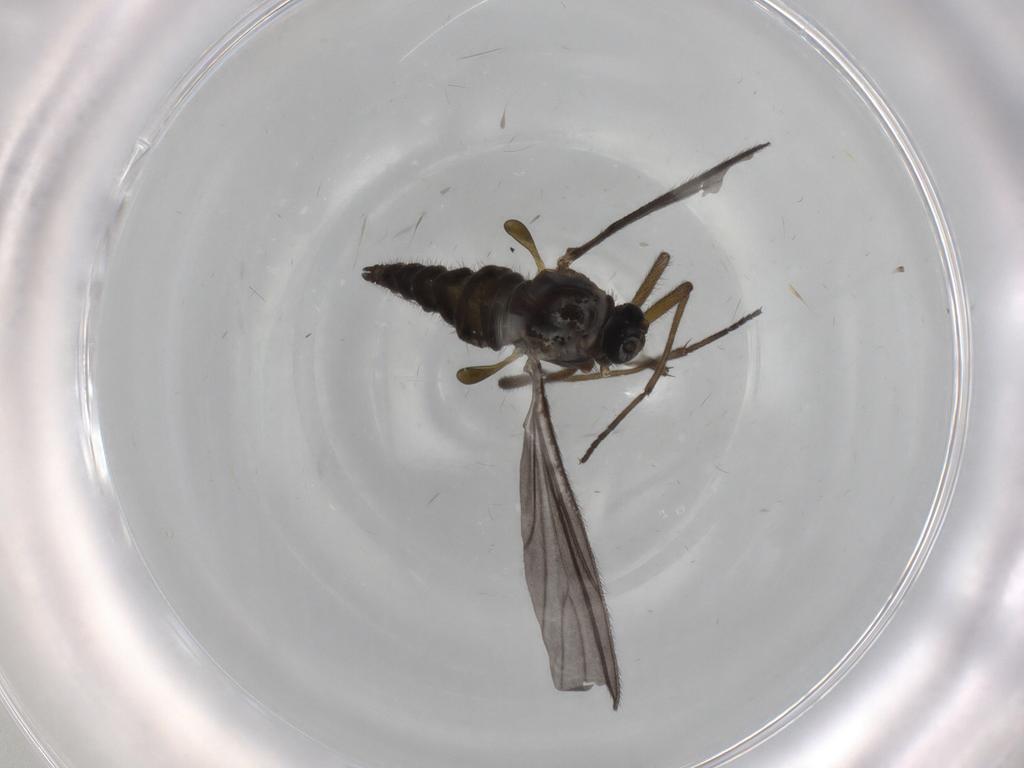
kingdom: Animalia
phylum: Arthropoda
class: Insecta
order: Diptera
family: Sciaridae
